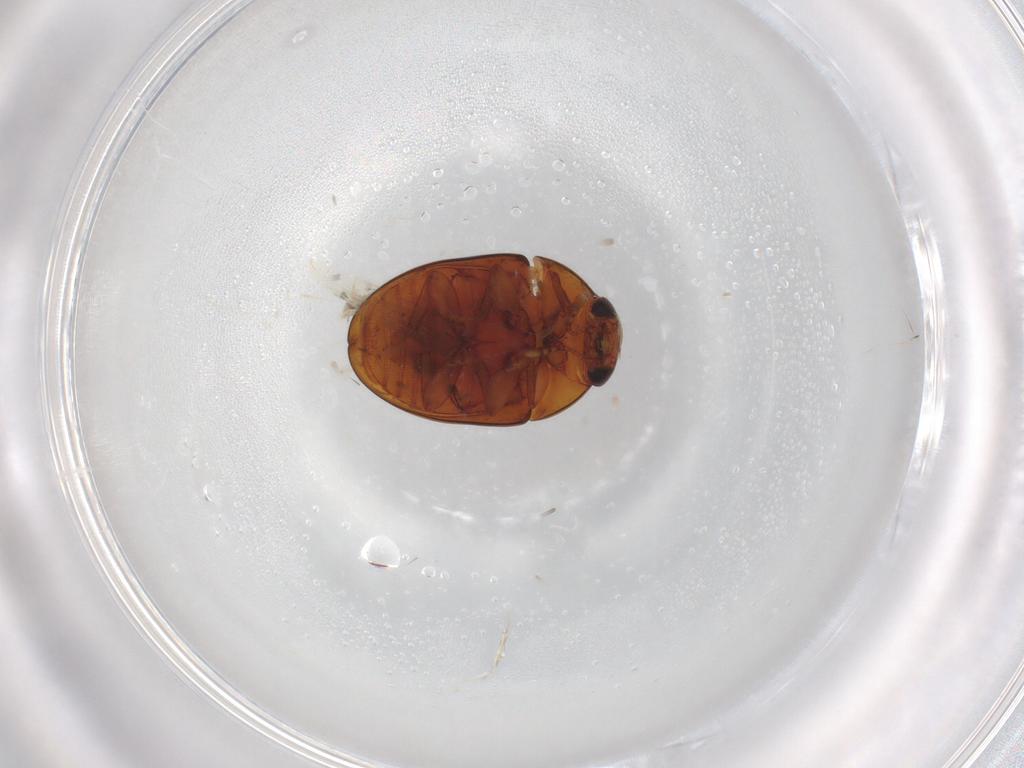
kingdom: Animalia
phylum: Arthropoda
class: Insecta
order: Coleoptera
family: Phalacridae
